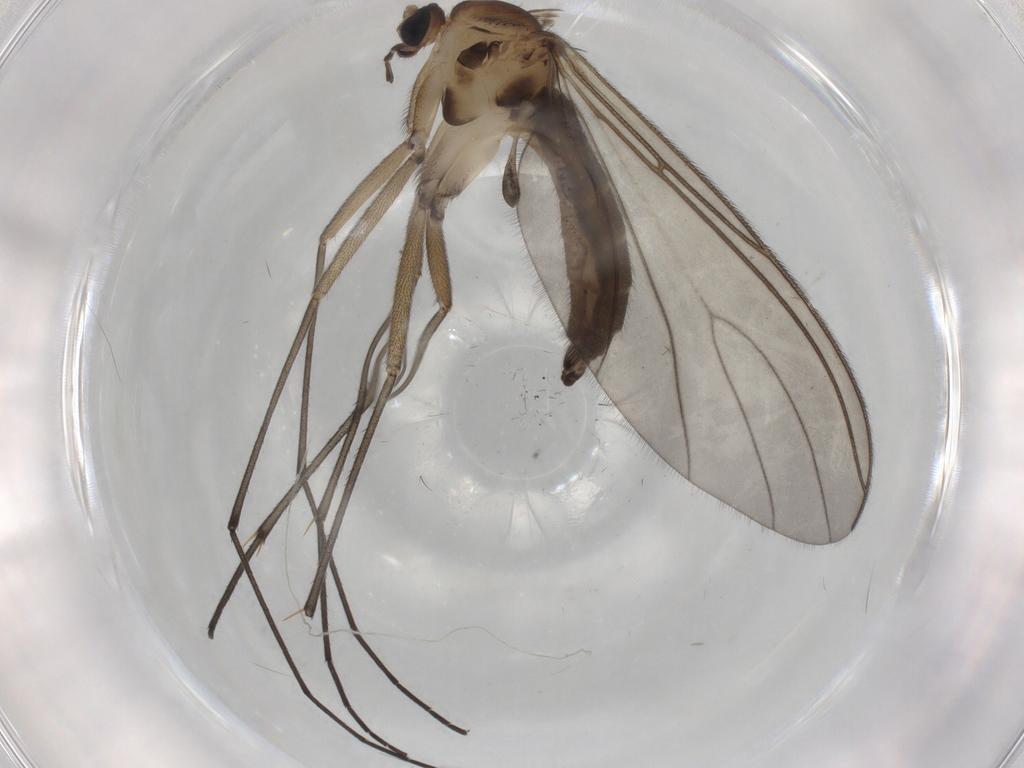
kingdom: Animalia
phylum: Arthropoda
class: Insecta
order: Diptera
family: Sciaridae
